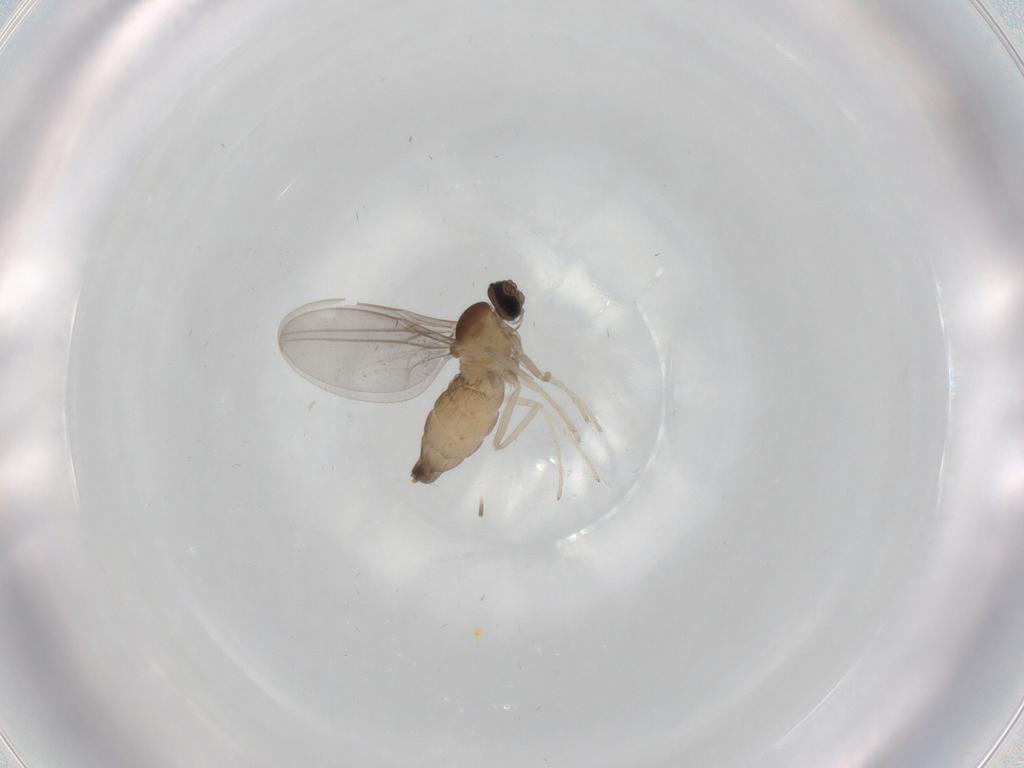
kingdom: Animalia
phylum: Arthropoda
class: Insecta
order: Diptera
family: Cecidomyiidae
